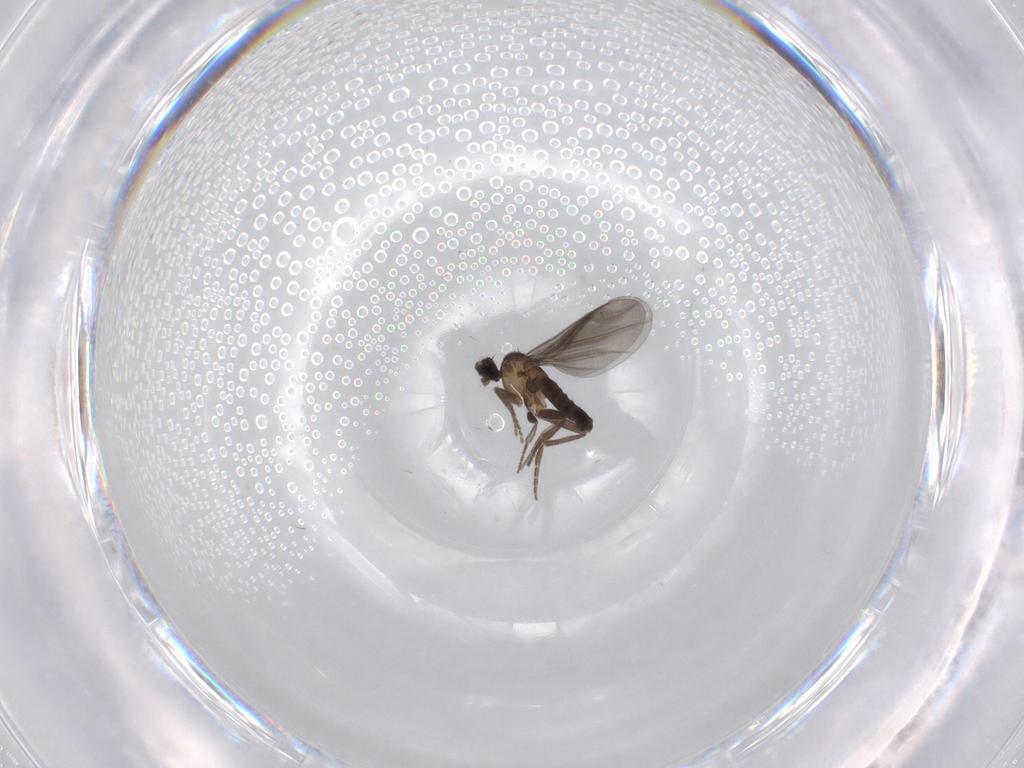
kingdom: Animalia
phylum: Arthropoda
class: Insecta
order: Diptera
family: Phoridae
